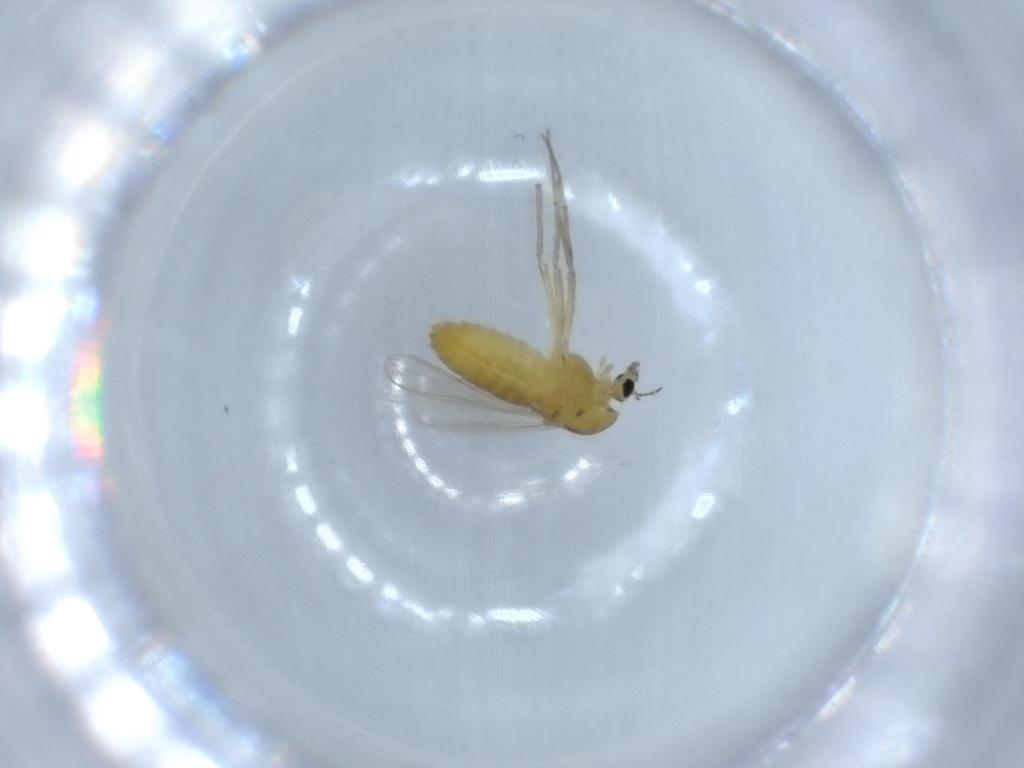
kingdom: Animalia
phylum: Arthropoda
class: Insecta
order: Diptera
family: Chironomidae
